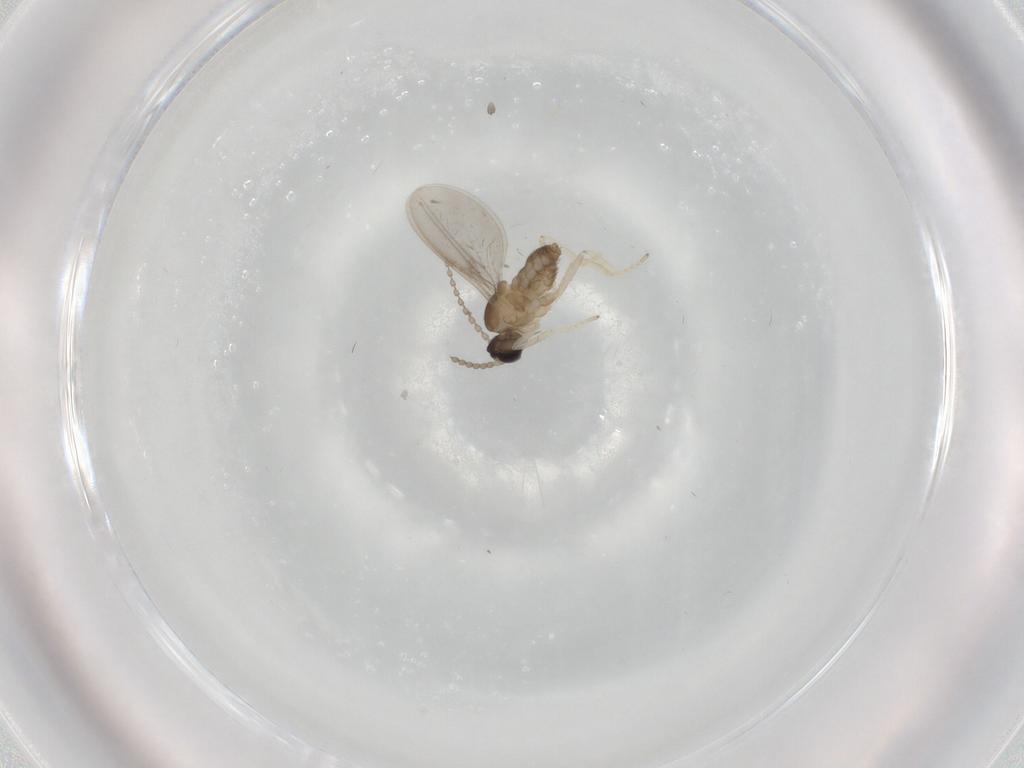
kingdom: Animalia
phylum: Arthropoda
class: Insecta
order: Diptera
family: Cecidomyiidae
